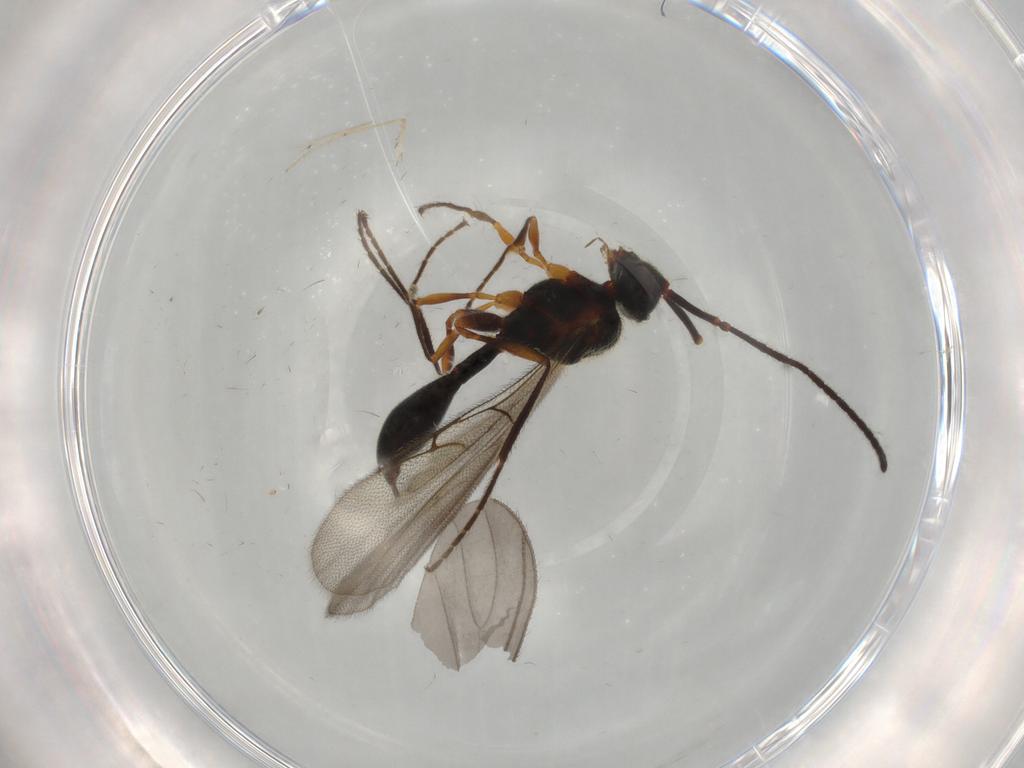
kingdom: Animalia
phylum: Arthropoda
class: Insecta
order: Hymenoptera
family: Diapriidae
